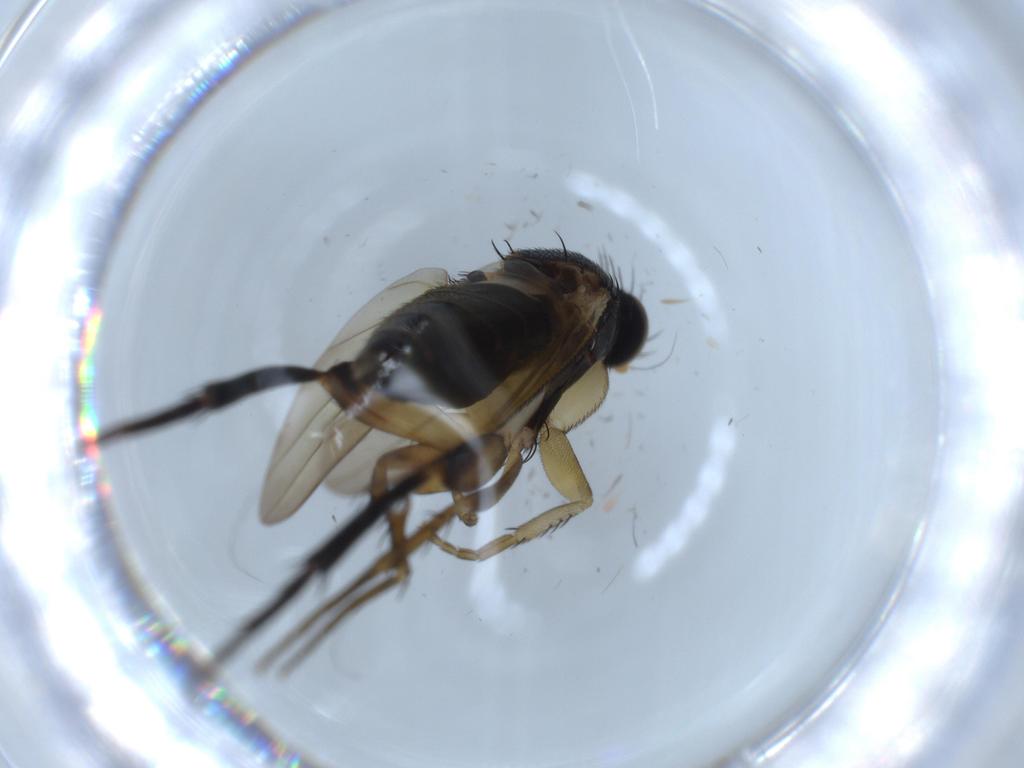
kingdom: Animalia
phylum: Arthropoda
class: Insecta
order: Diptera
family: Phoridae
